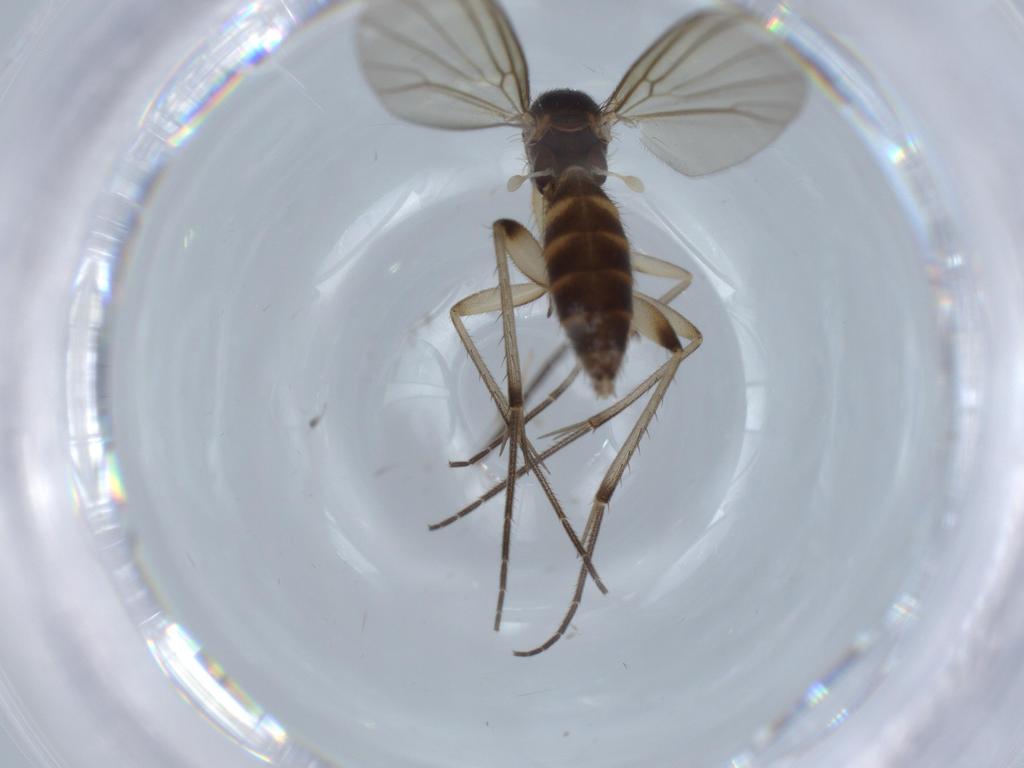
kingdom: Animalia
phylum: Arthropoda
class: Insecta
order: Diptera
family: Mycetophilidae
